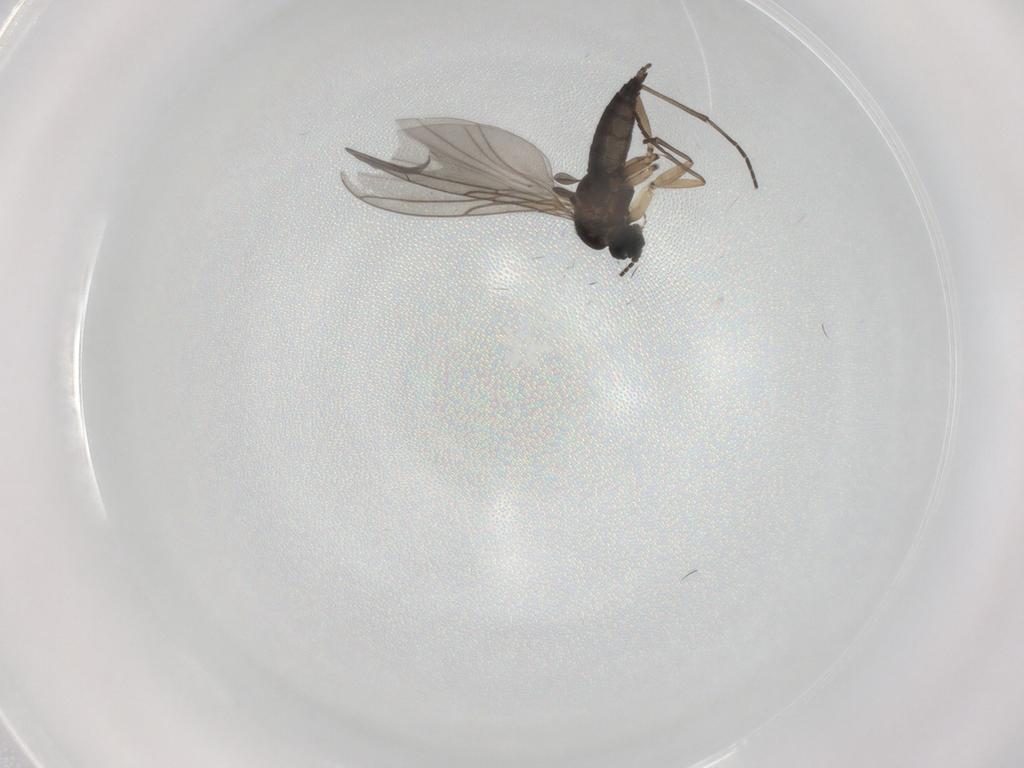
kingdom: Animalia
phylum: Arthropoda
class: Insecta
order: Diptera
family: Sciaridae
